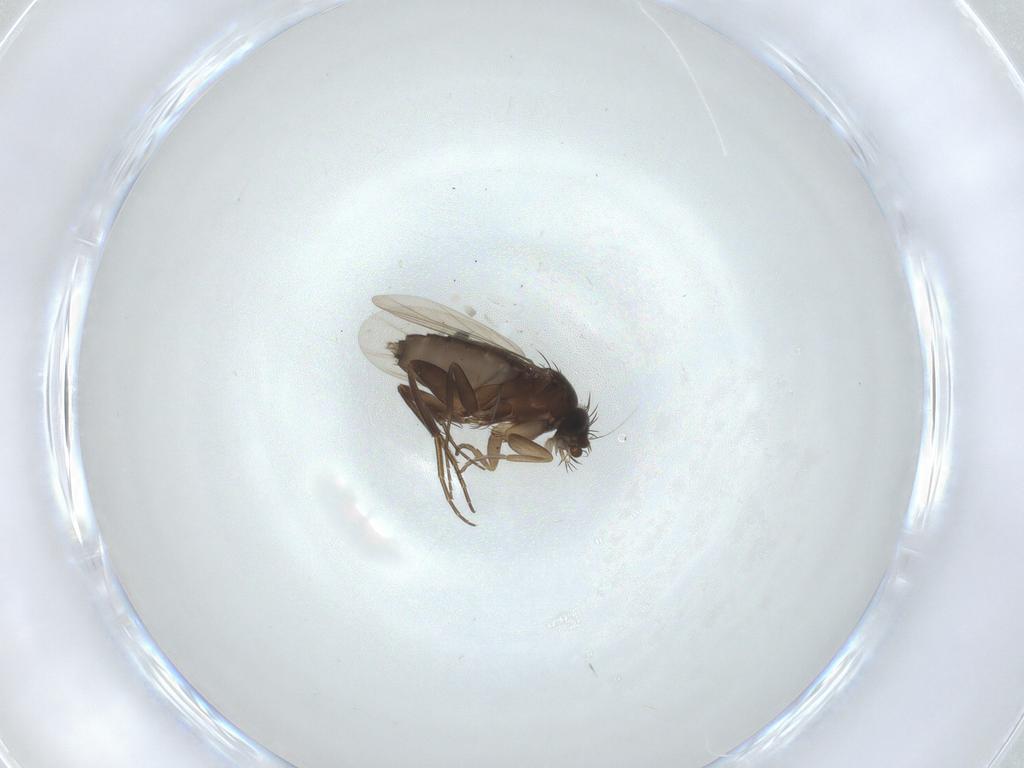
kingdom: Animalia
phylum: Arthropoda
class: Insecta
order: Diptera
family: Phoridae
